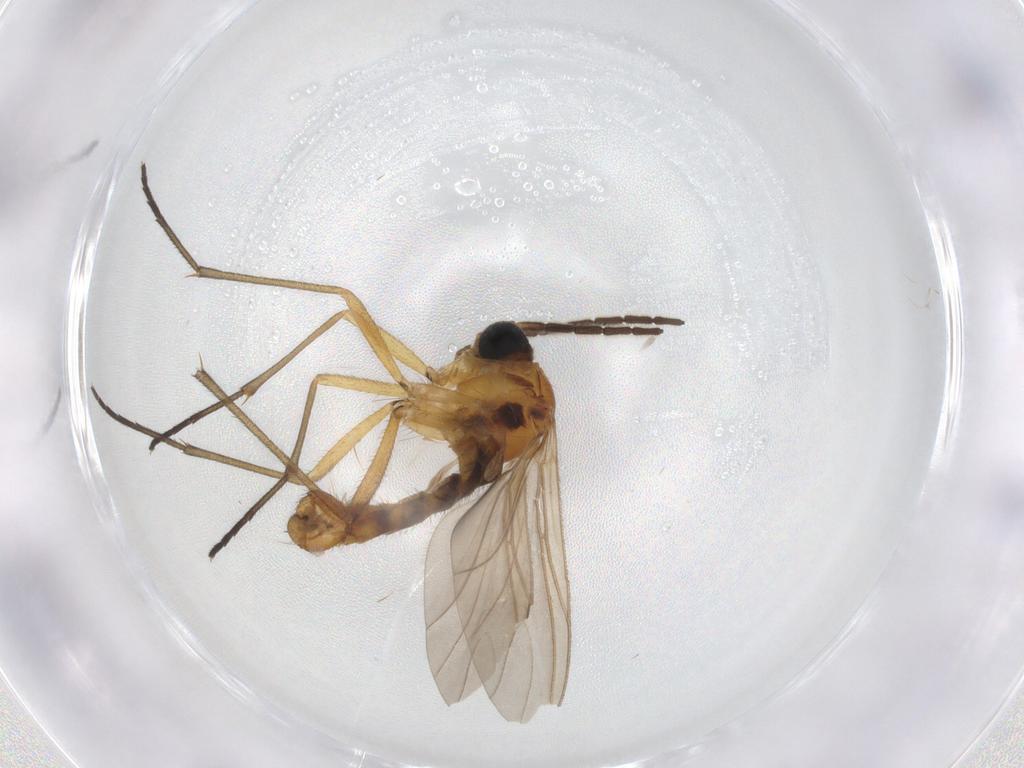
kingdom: Animalia
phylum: Arthropoda
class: Insecta
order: Diptera
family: Sciaridae
